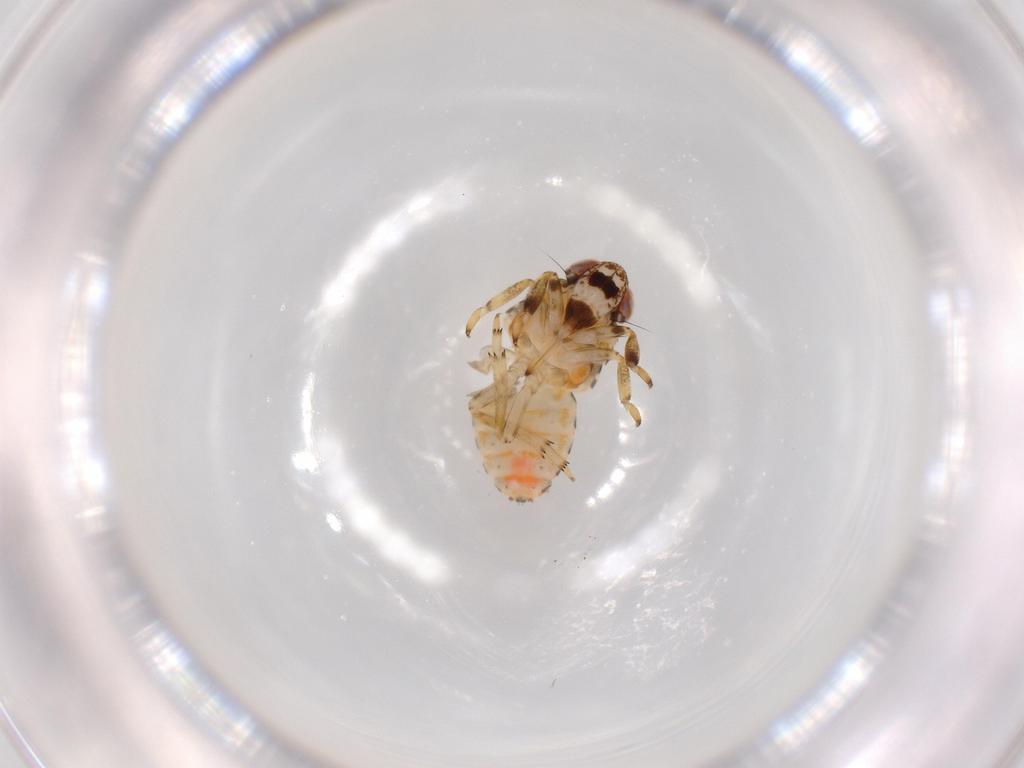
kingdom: Animalia
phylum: Arthropoda
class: Insecta
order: Hemiptera
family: Issidae
